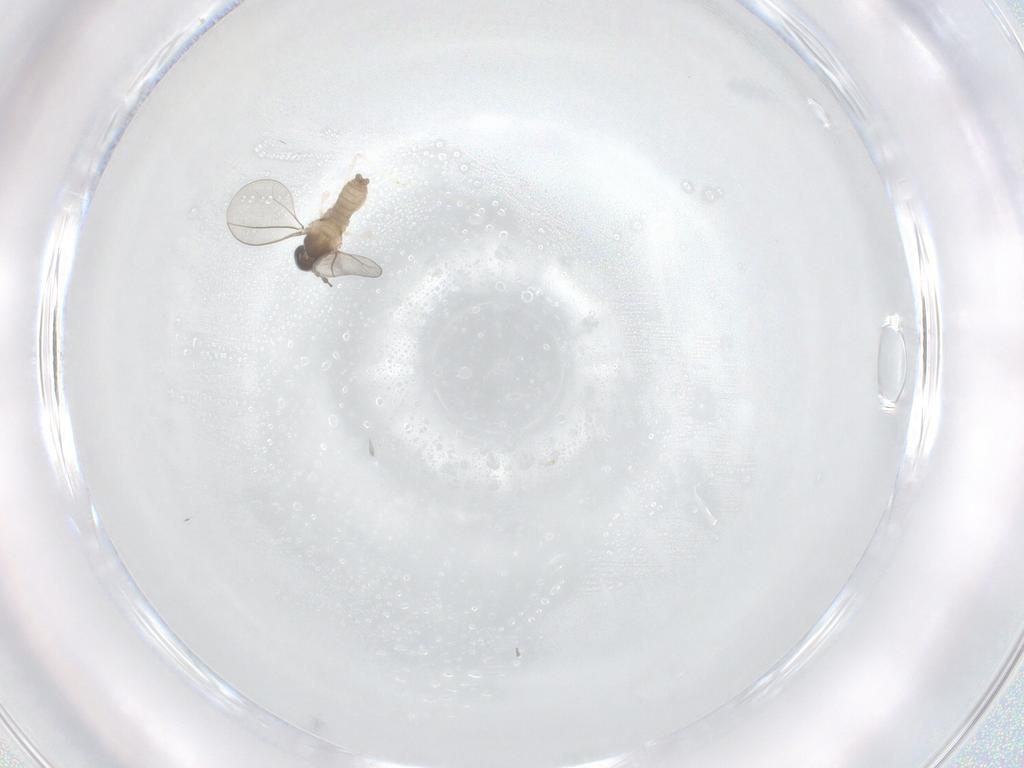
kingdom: Animalia
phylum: Arthropoda
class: Insecta
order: Diptera
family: Cecidomyiidae
